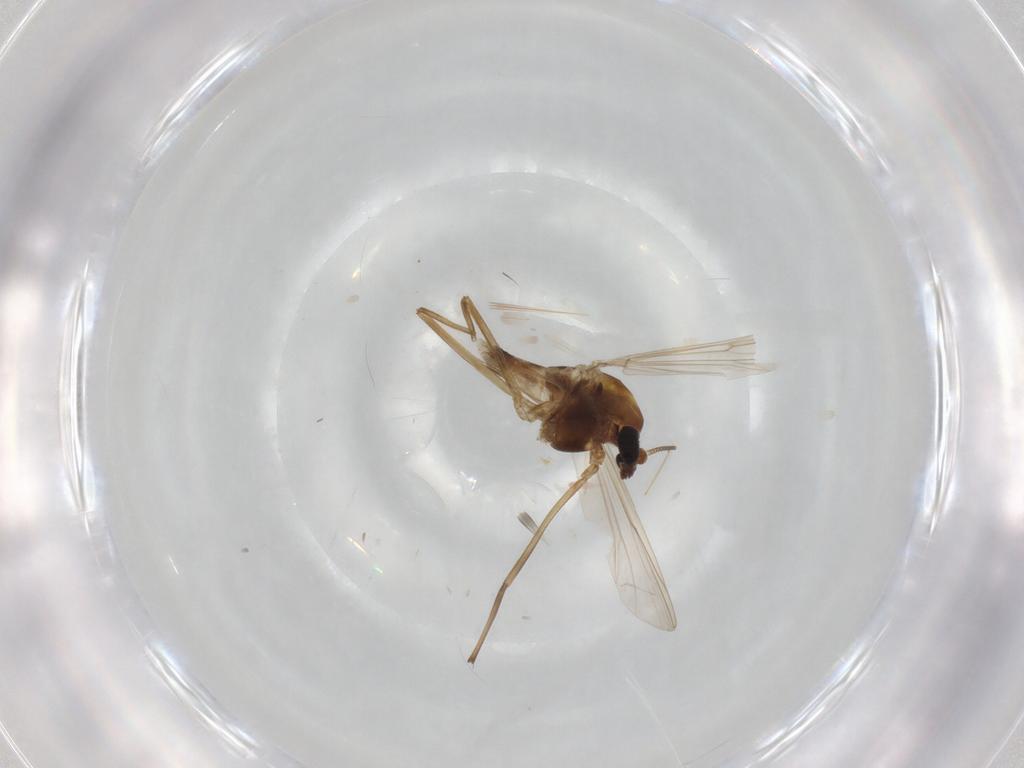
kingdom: Animalia
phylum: Arthropoda
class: Insecta
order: Diptera
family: Chironomidae
